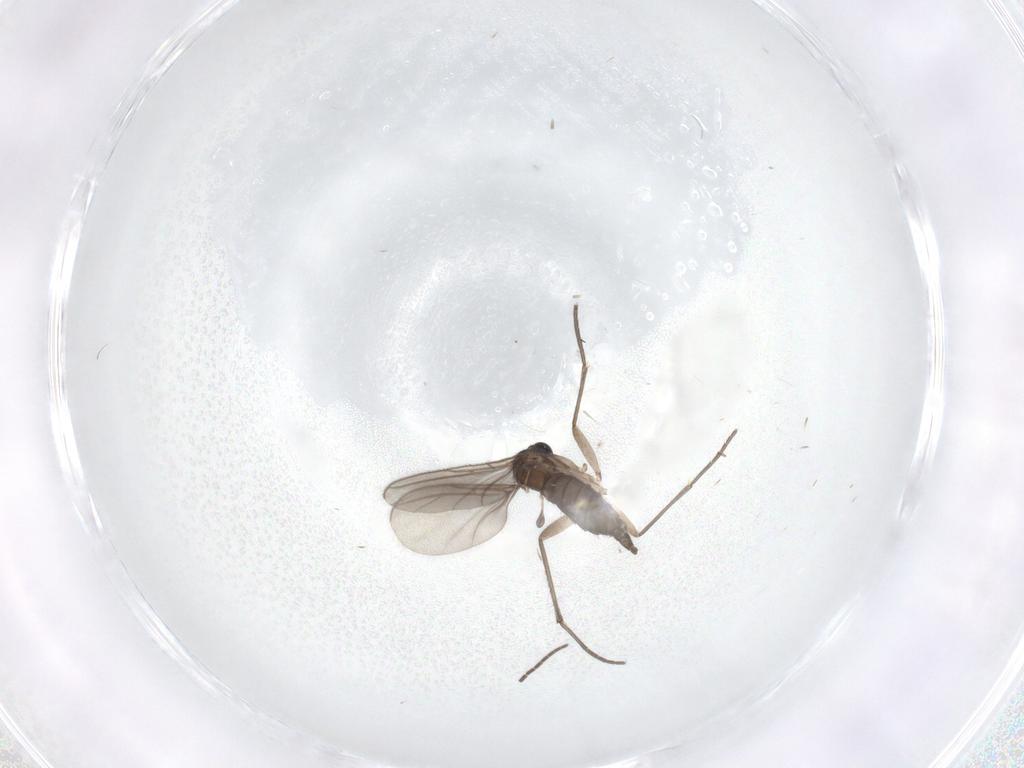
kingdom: Animalia
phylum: Arthropoda
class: Insecta
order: Diptera
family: Sciaridae
